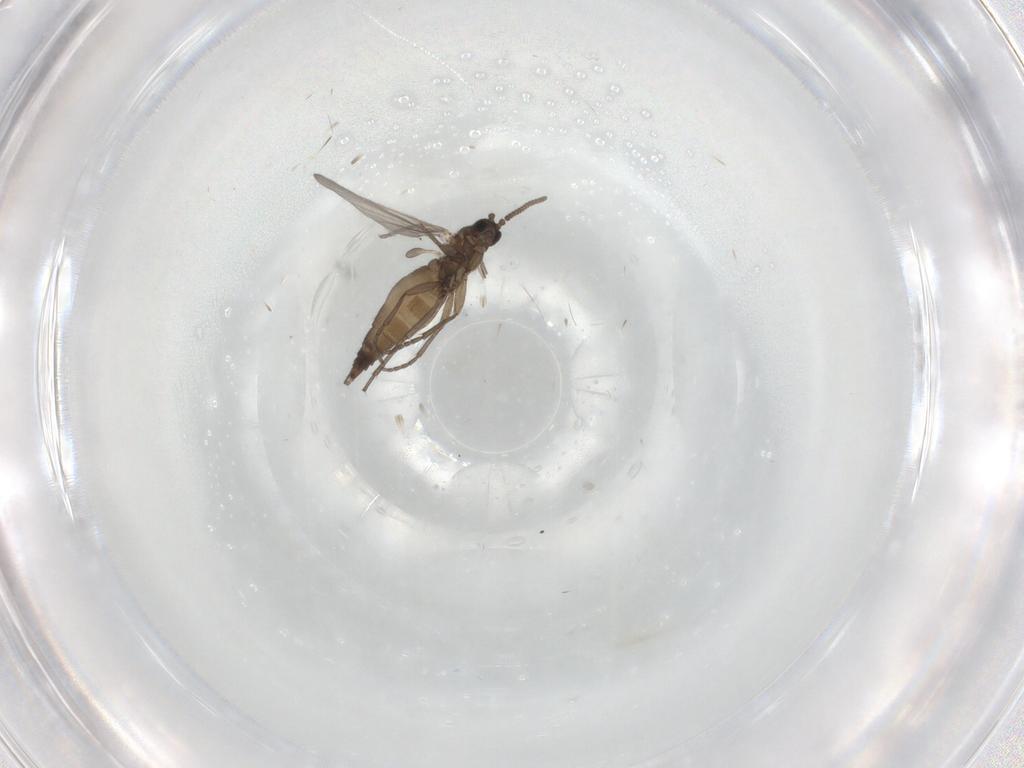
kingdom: Animalia
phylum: Arthropoda
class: Insecta
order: Diptera
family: Sciaridae
